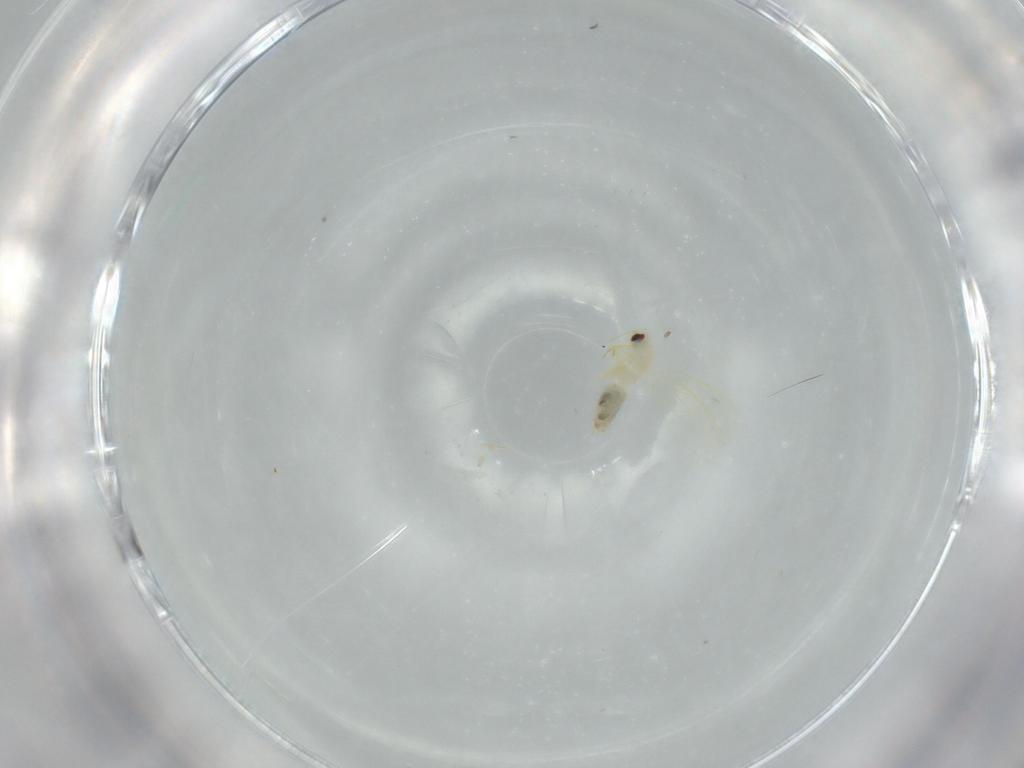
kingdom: Animalia
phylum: Arthropoda
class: Insecta
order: Hemiptera
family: Aleyrodidae
